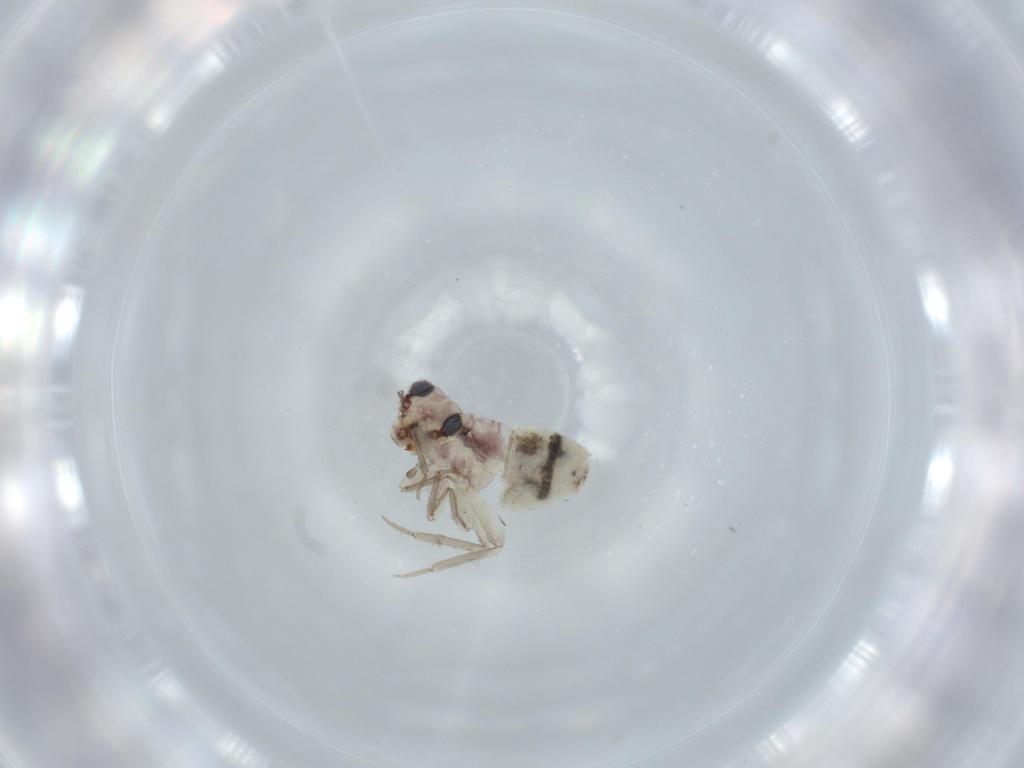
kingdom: Animalia
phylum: Arthropoda
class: Insecta
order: Psocodea
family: Lepidopsocidae
